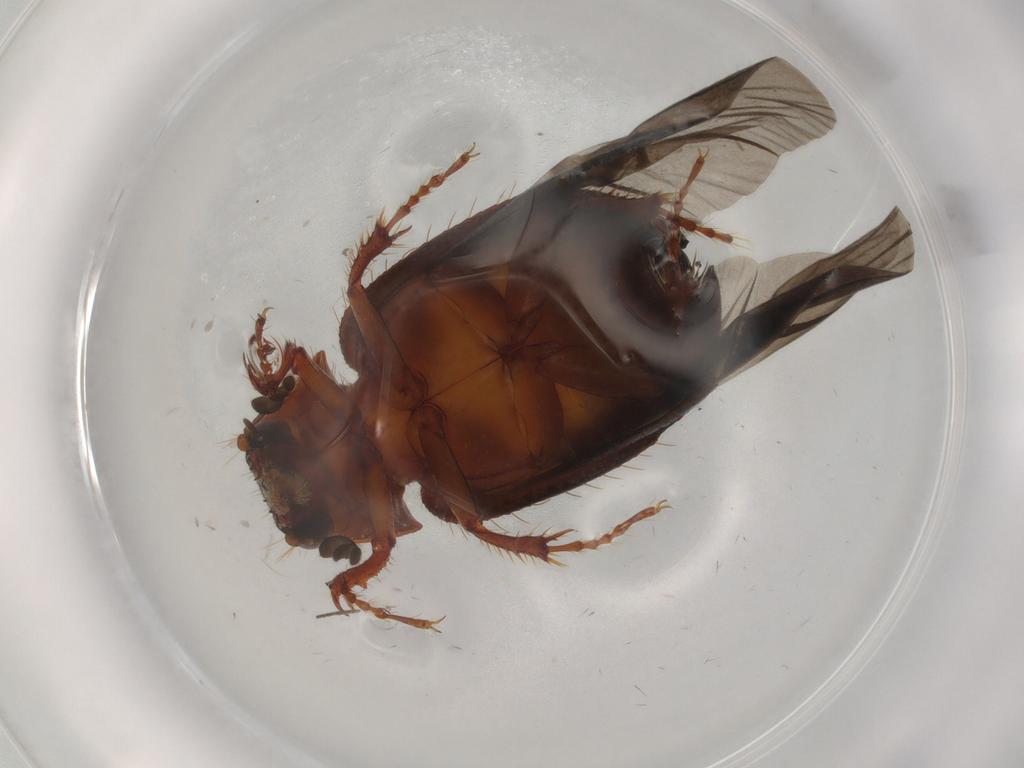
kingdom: Animalia
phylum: Arthropoda
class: Insecta
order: Coleoptera
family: Hybosoridae
